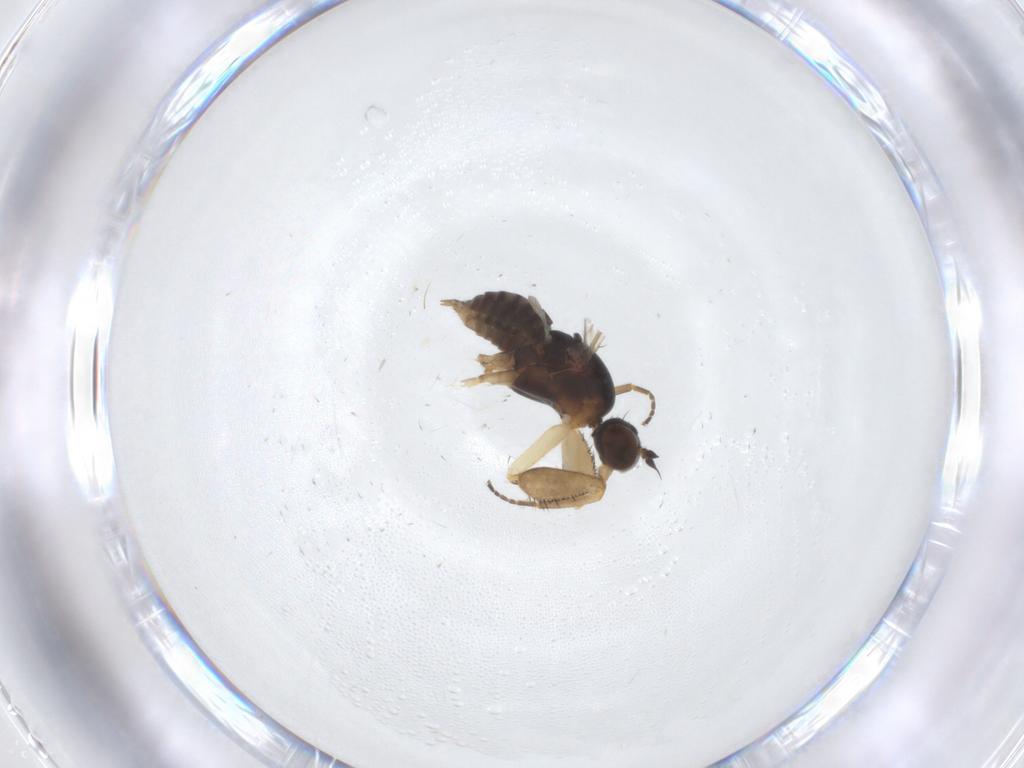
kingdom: Animalia
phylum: Arthropoda
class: Insecta
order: Diptera
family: Empididae
